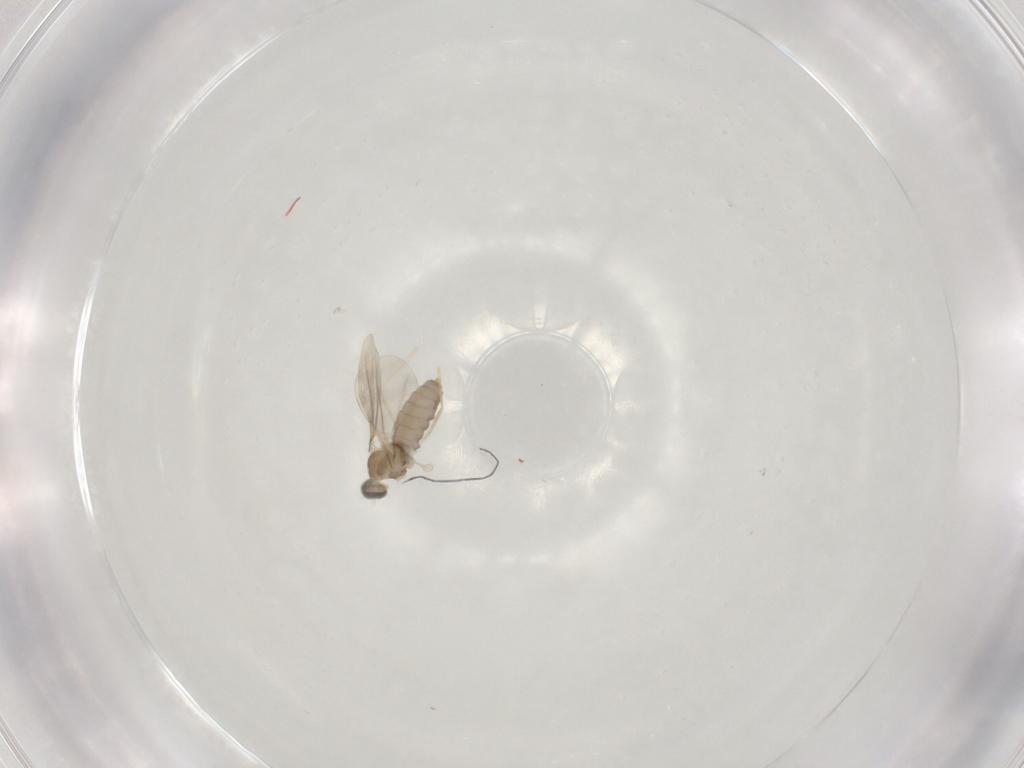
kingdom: Animalia
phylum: Arthropoda
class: Insecta
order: Diptera
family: Cecidomyiidae
